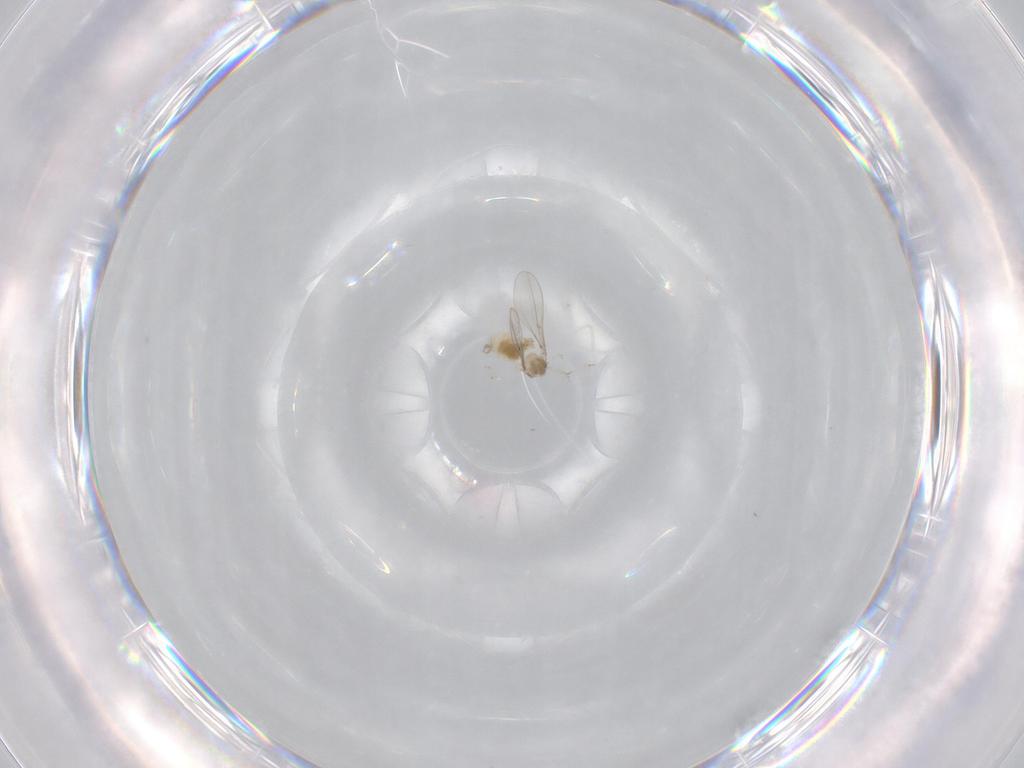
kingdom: Animalia
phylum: Arthropoda
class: Insecta
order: Diptera
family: Cecidomyiidae
